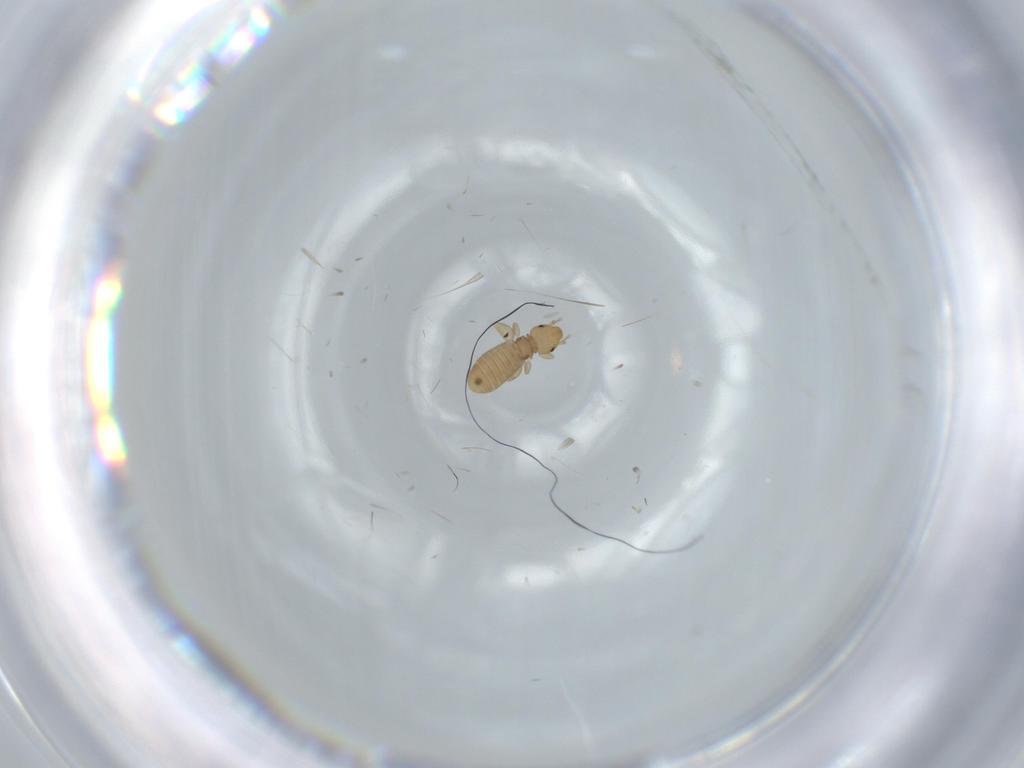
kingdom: Animalia
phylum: Arthropoda
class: Insecta
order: Psocodea
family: Liposcelididae
